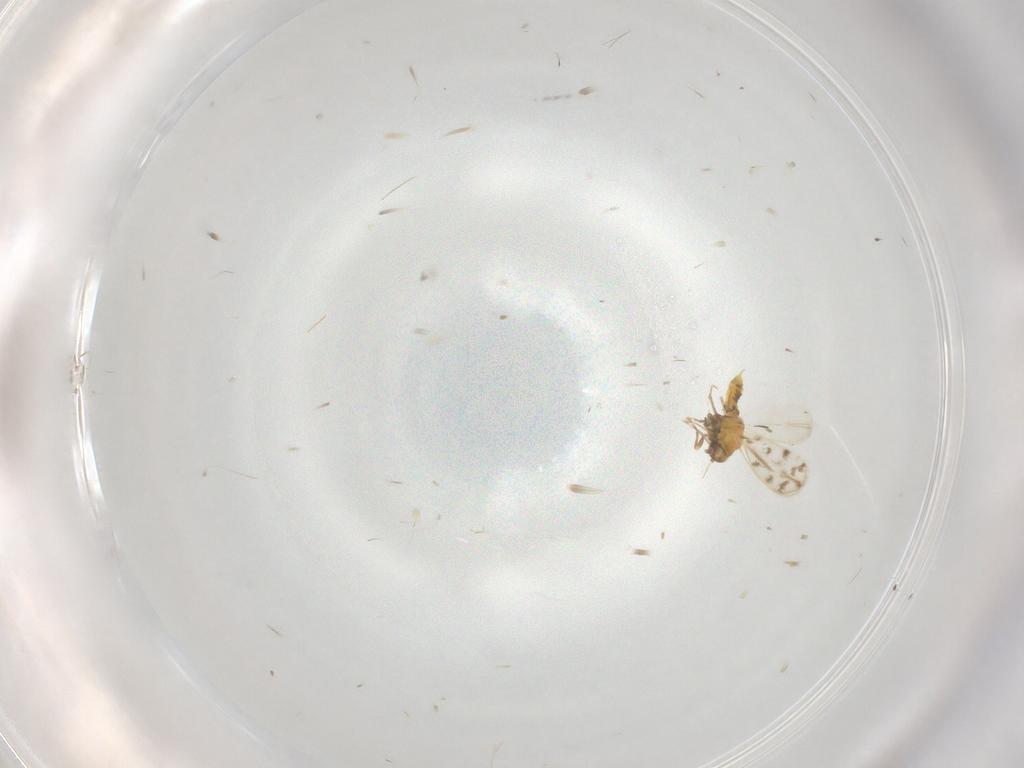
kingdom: Animalia
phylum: Arthropoda
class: Insecta
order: Hemiptera
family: Aleyrodidae
